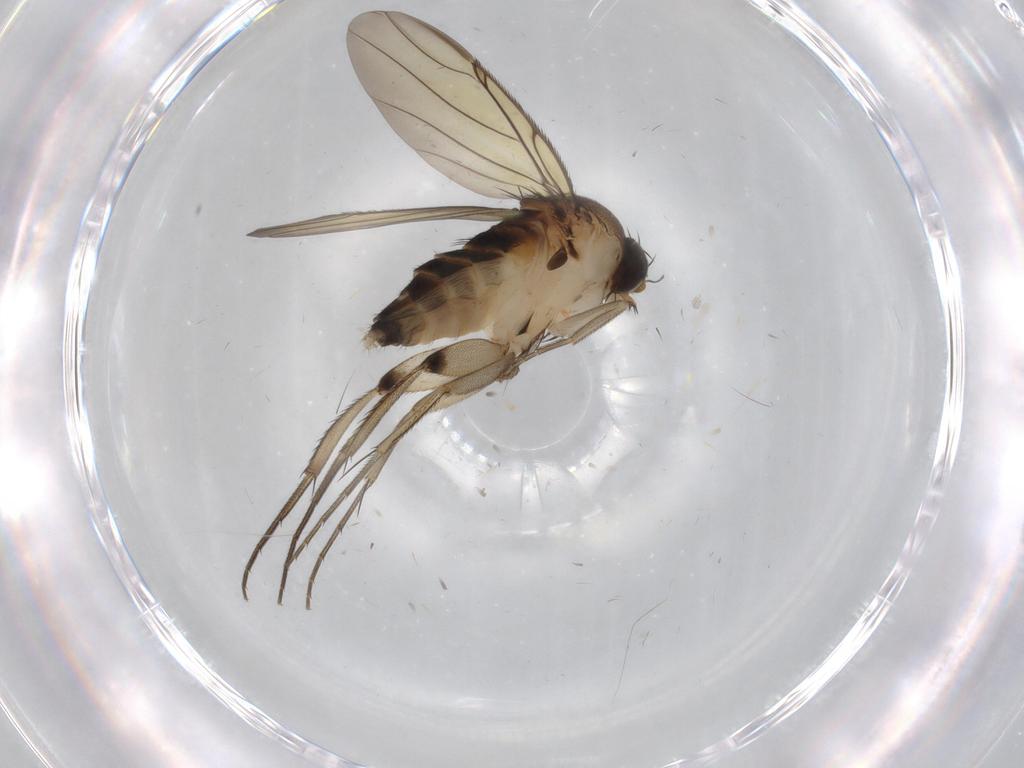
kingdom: Animalia
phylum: Arthropoda
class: Insecta
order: Diptera
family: Phoridae
